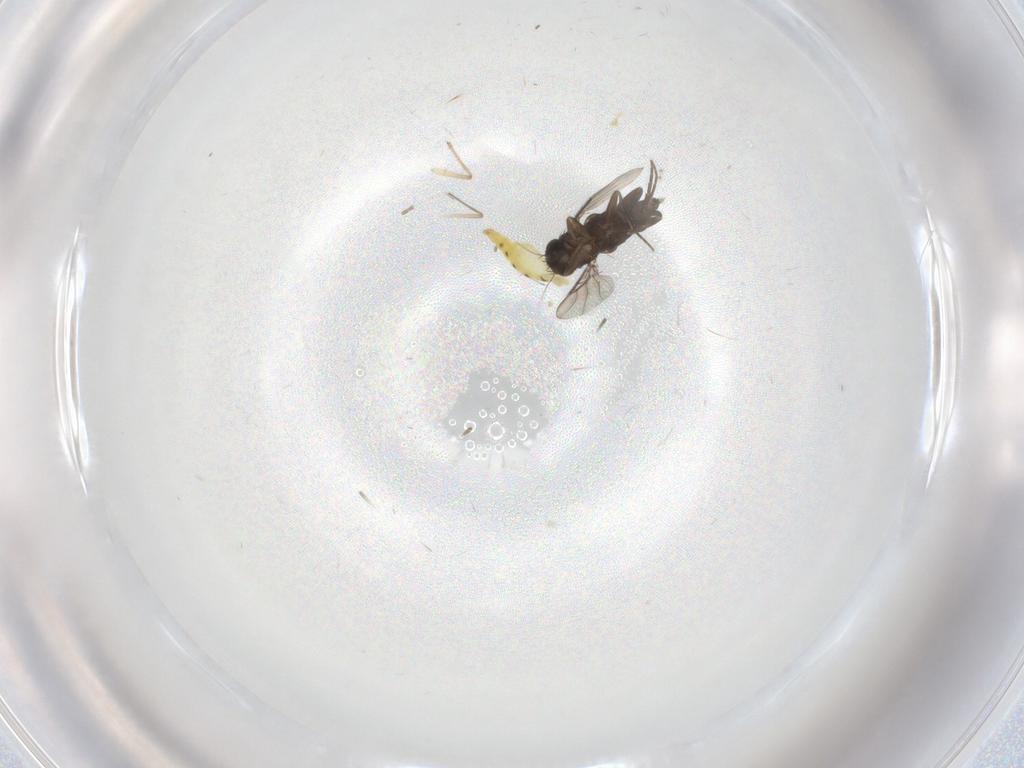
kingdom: Animalia
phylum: Arthropoda
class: Insecta
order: Diptera
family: Phoridae
